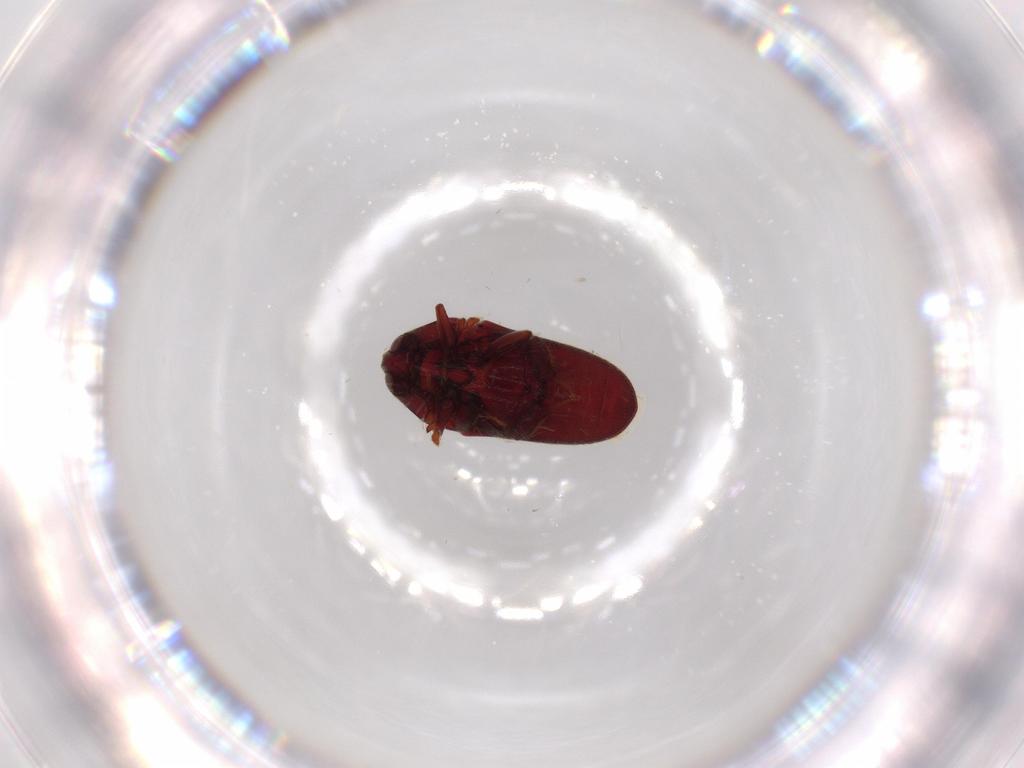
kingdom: Animalia
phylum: Arthropoda
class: Insecta
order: Coleoptera
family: Throscidae
